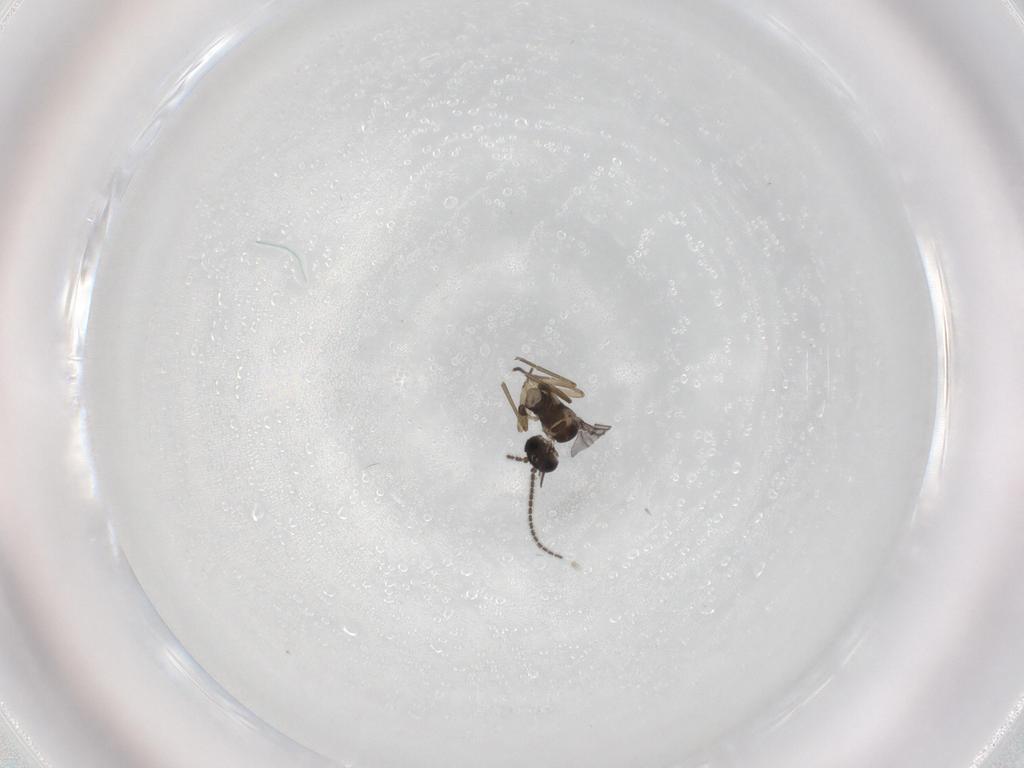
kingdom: Animalia
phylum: Arthropoda
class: Insecta
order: Diptera
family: Sciaridae
